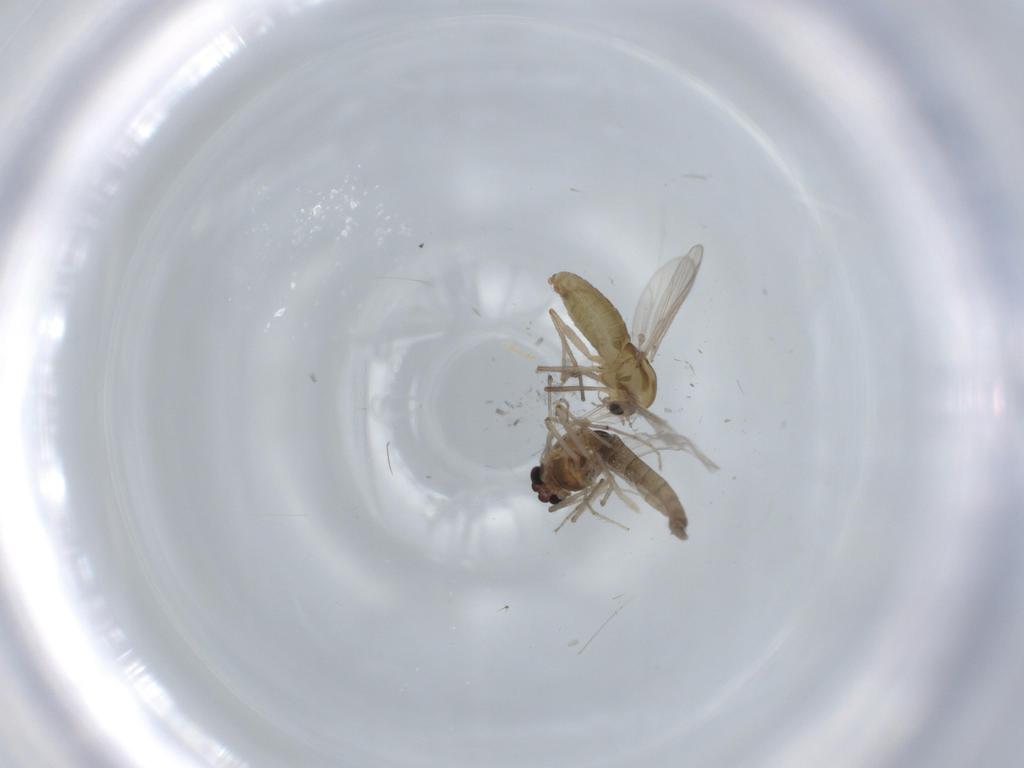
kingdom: Animalia
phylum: Arthropoda
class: Insecta
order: Diptera
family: Chironomidae
